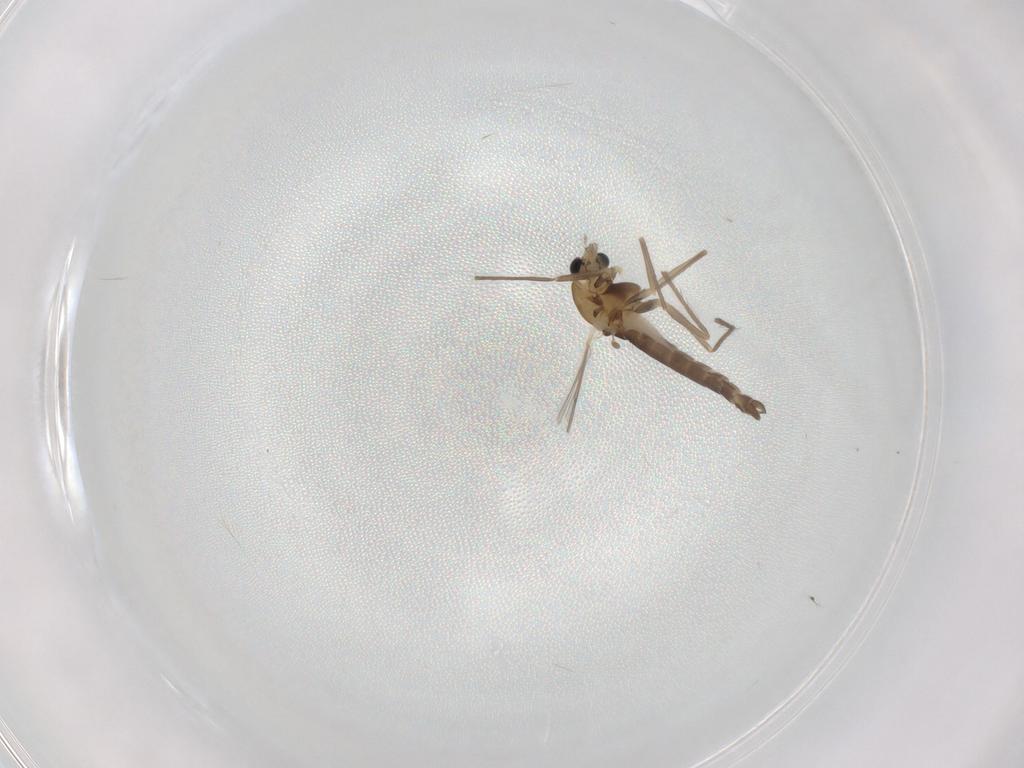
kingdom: Animalia
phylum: Arthropoda
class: Insecta
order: Diptera
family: Chironomidae
